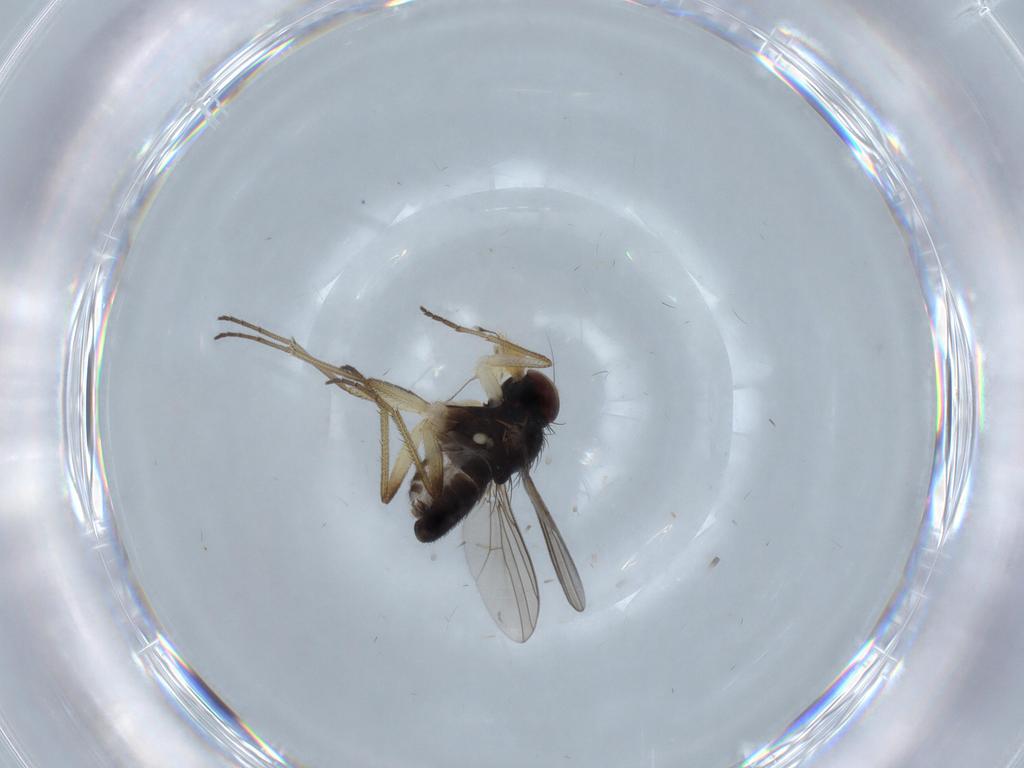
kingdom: Animalia
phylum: Arthropoda
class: Insecta
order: Diptera
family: Dolichopodidae
